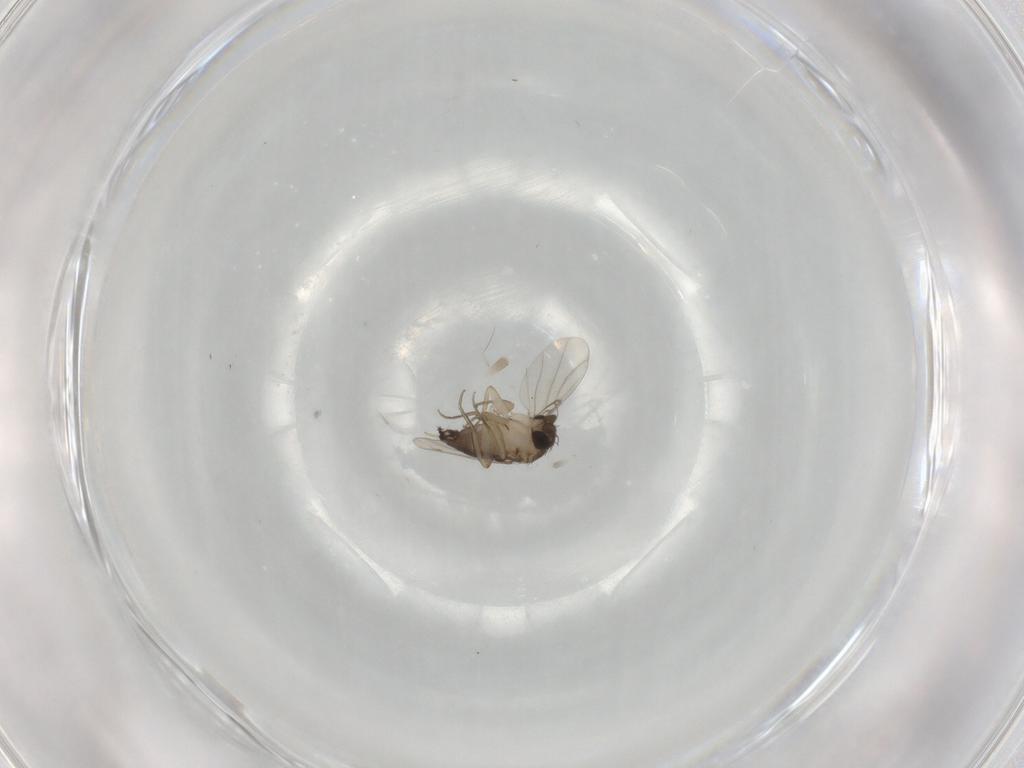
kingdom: Animalia
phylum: Arthropoda
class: Insecta
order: Diptera
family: Phoridae
